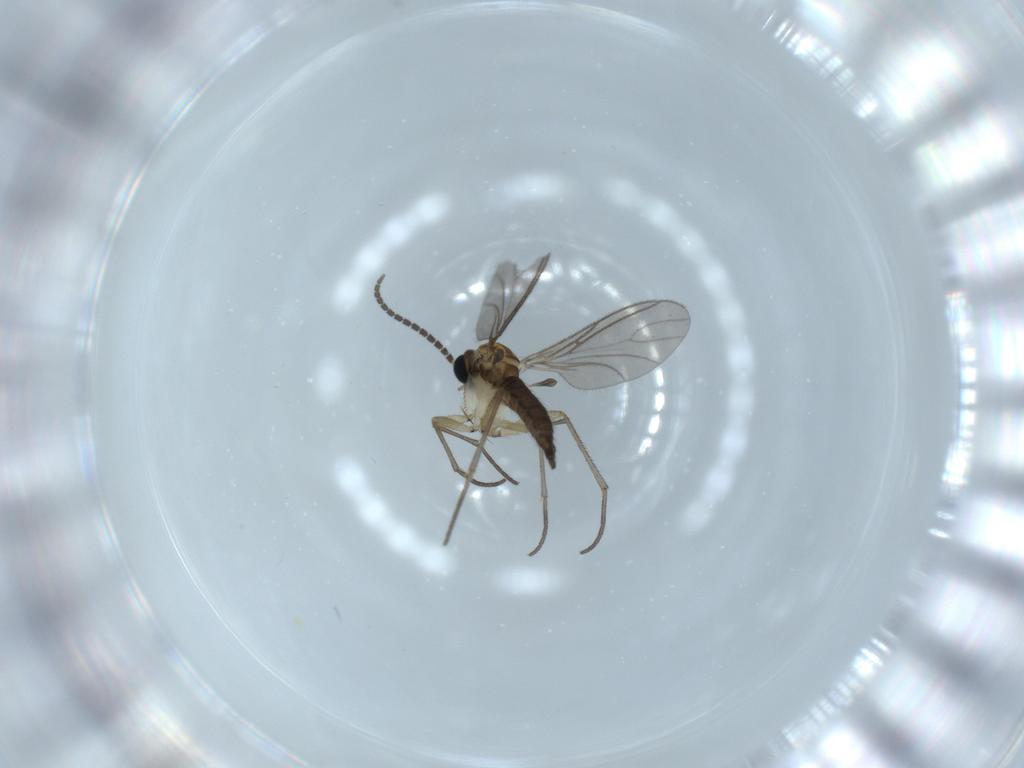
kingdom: Animalia
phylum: Arthropoda
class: Insecta
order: Diptera
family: Sciaridae
